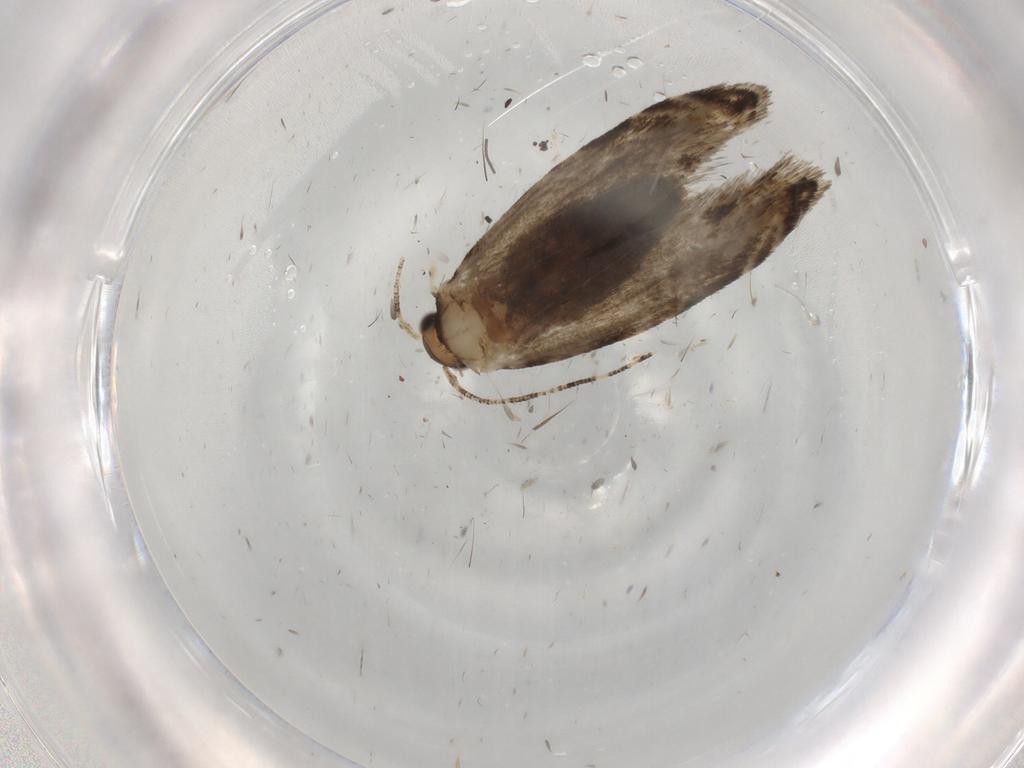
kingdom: Animalia
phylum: Arthropoda
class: Insecta
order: Lepidoptera
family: Tineidae
